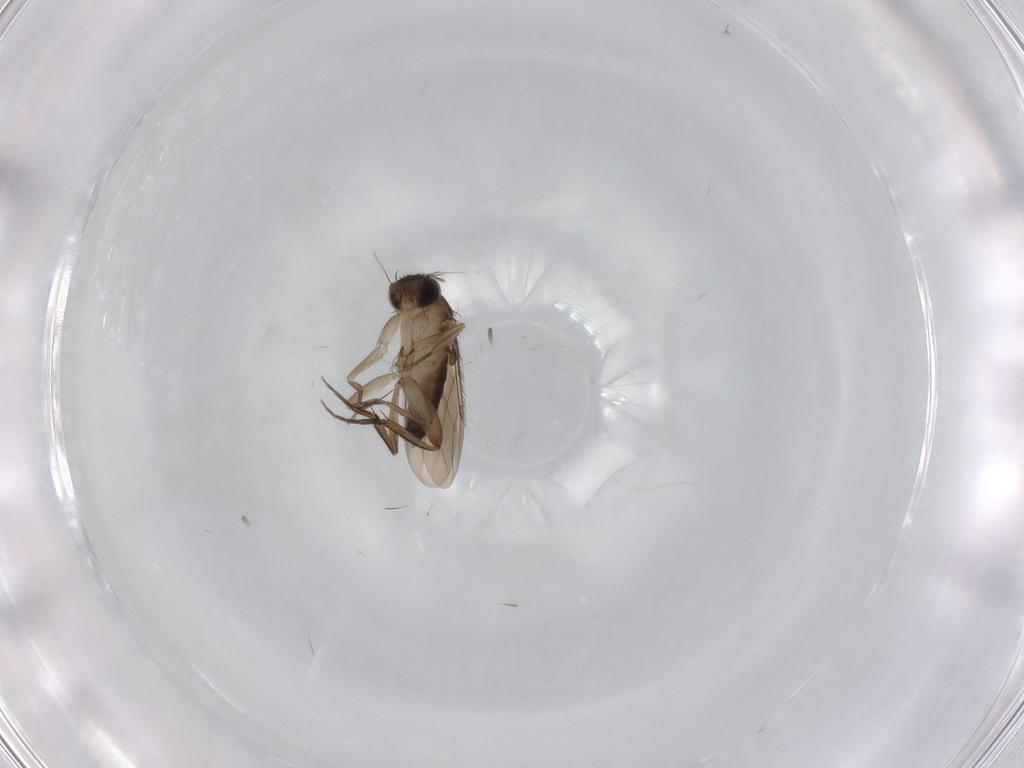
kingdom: Animalia
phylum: Arthropoda
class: Insecta
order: Diptera
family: Phoridae
